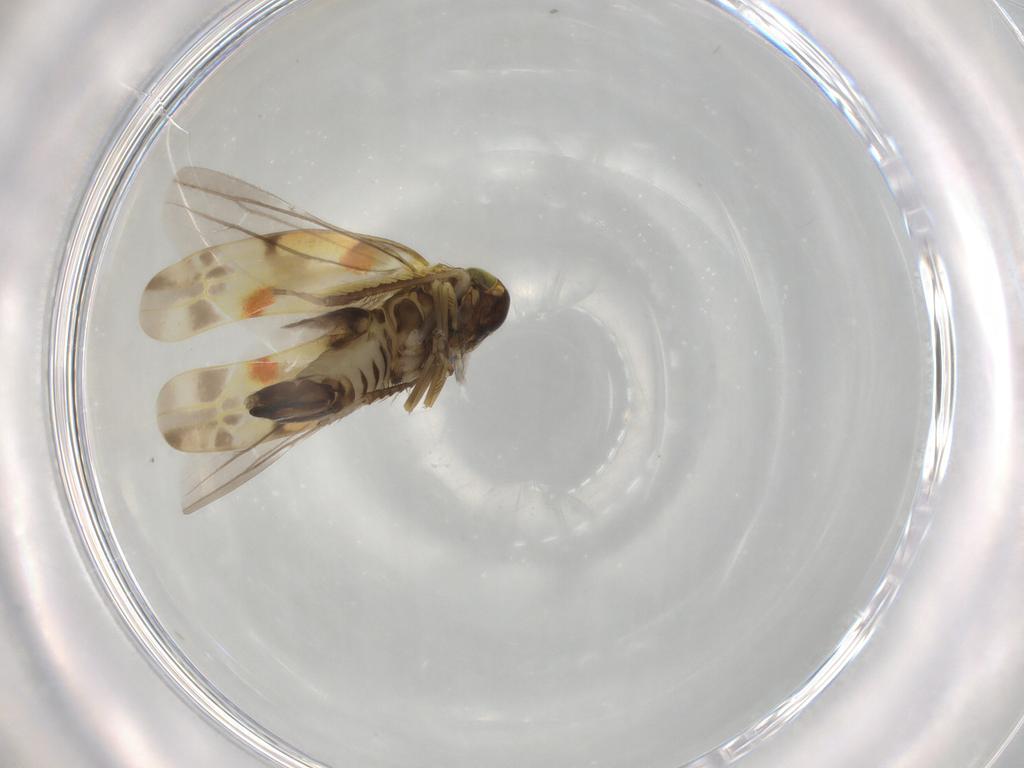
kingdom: Animalia
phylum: Arthropoda
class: Insecta
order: Hemiptera
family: Cicadellidae
